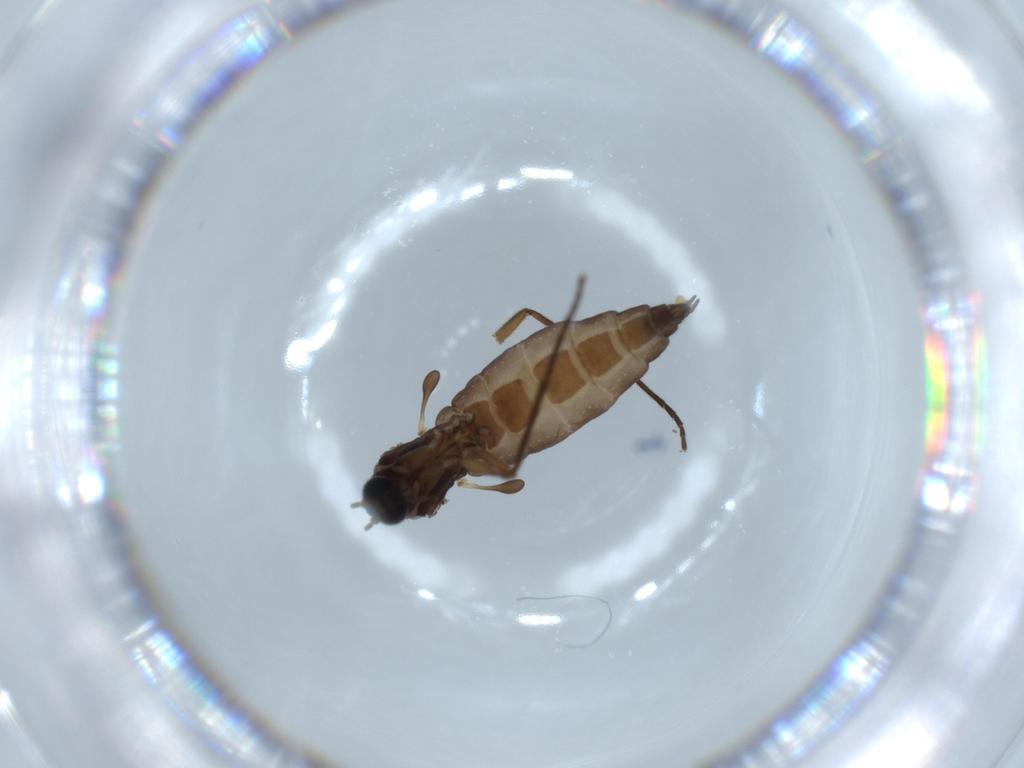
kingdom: Animalia
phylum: Arthropoda
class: Insecta
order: Diptera
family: Sciaridae
